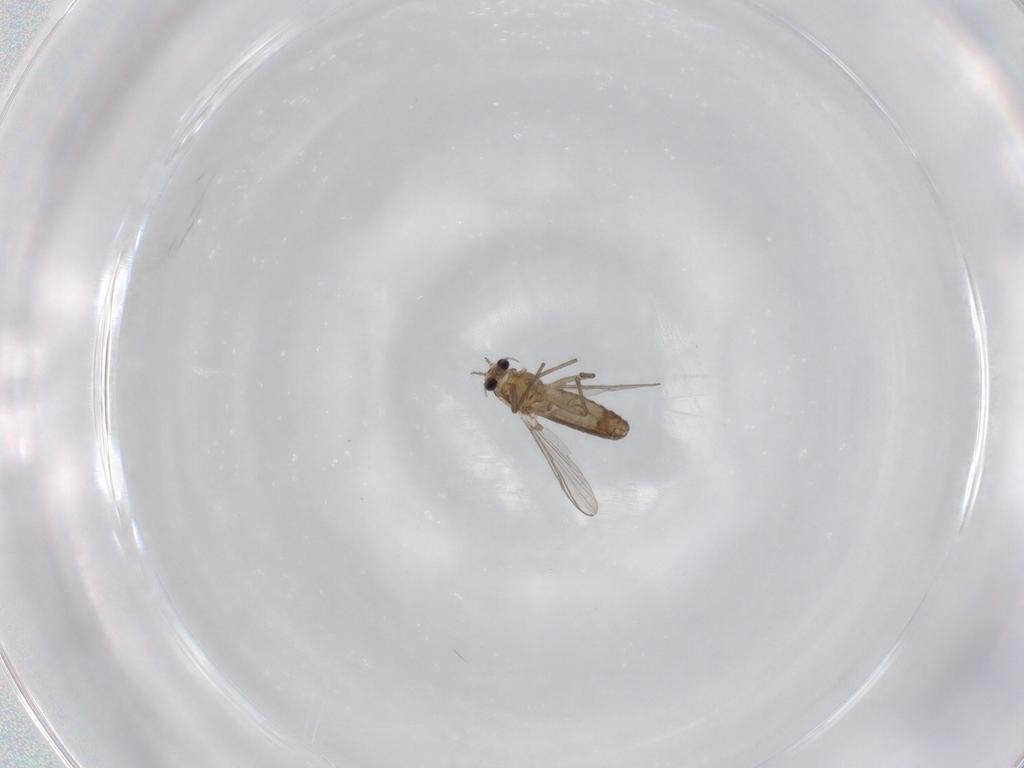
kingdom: Animalia
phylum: Arthropoda
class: Insecta
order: Diptera
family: Chironomidae
